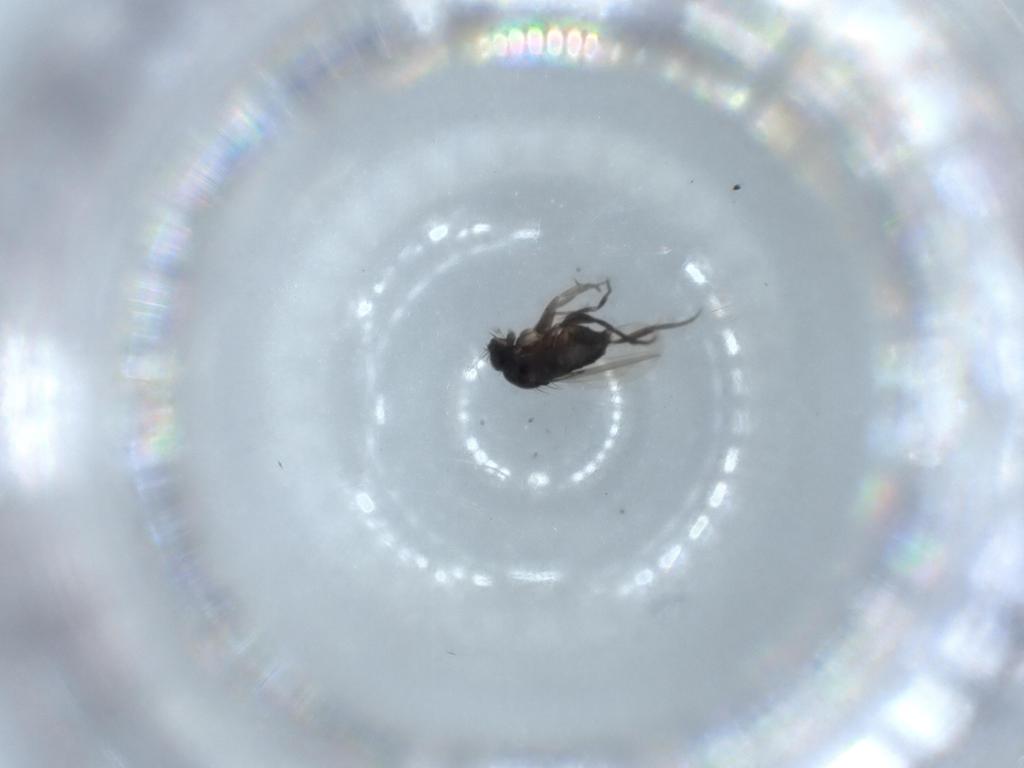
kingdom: Animalia
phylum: Arthropoda
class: Insecta
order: Diptera
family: Phoridae
